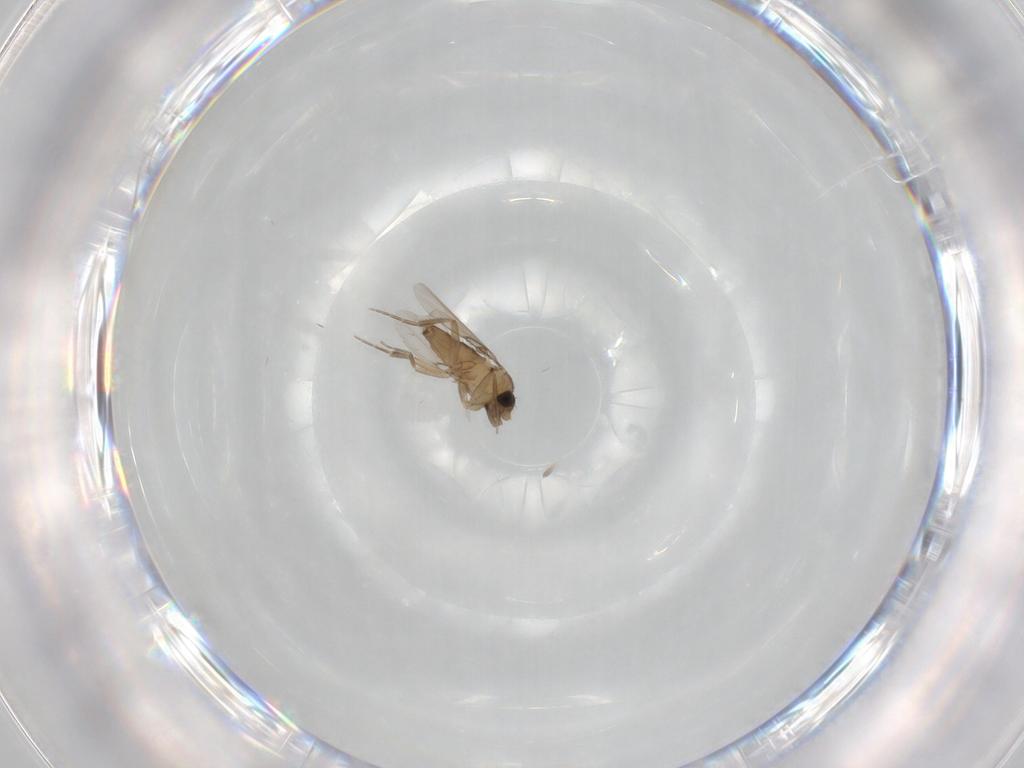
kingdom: Animalia
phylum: Arthropoda
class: Insecta
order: Diptera
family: Phoridae
